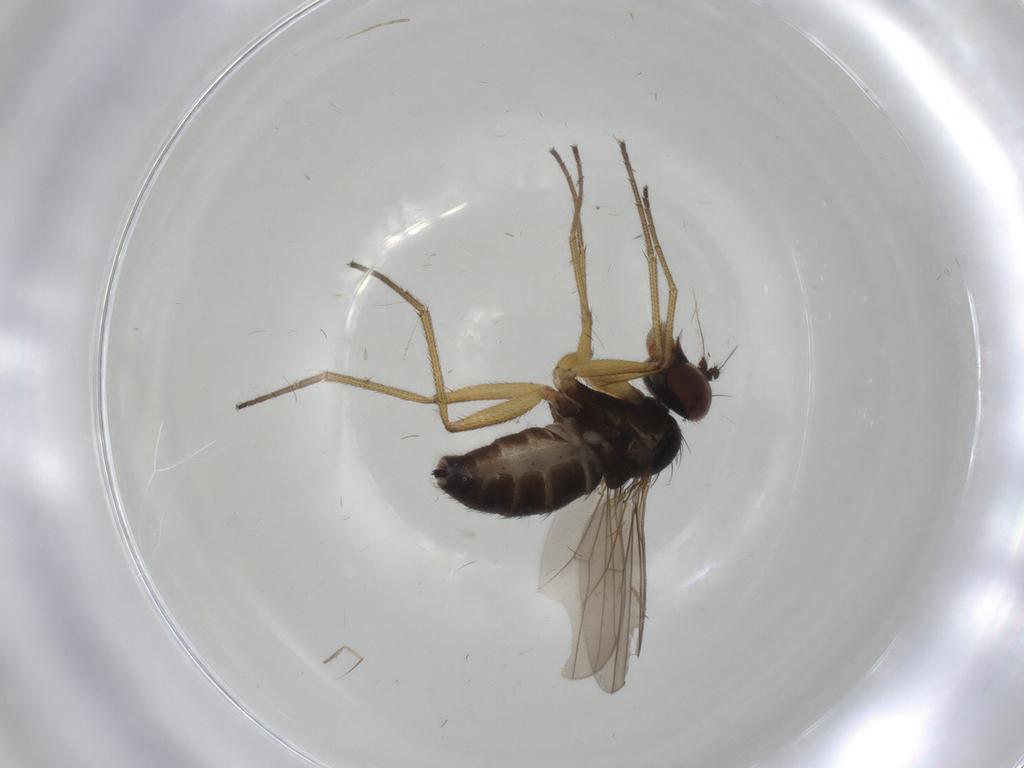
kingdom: Animalia
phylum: Arthropoda
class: Insecta
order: Diptera
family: Dolichopodidae
